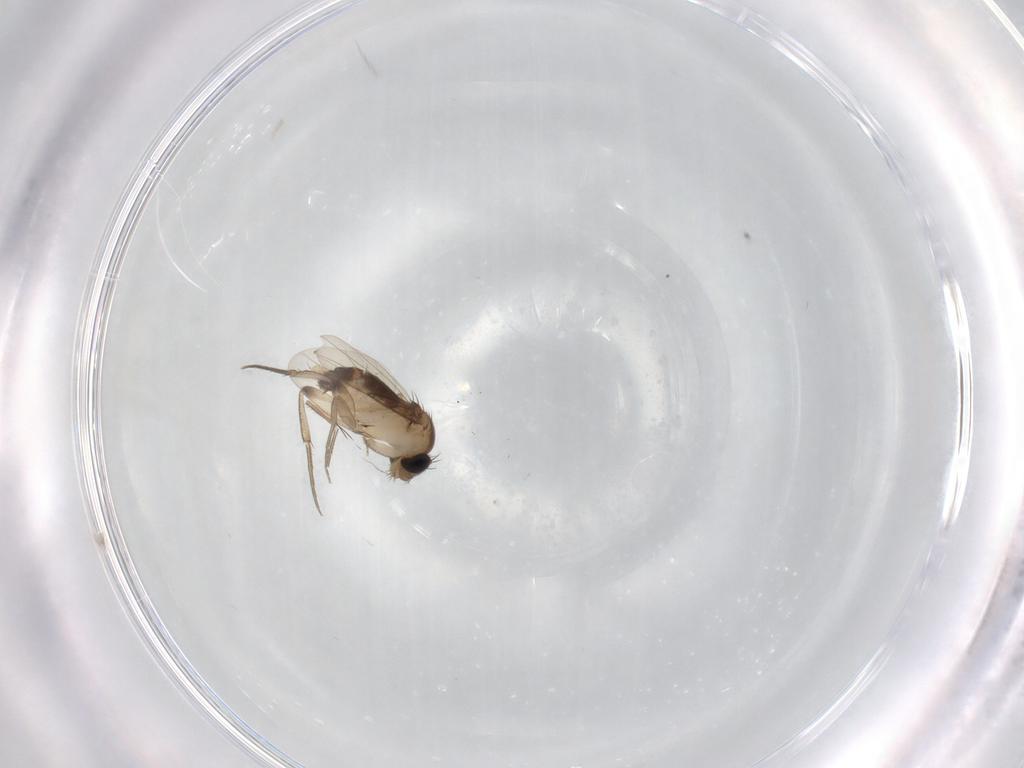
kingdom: Animalia
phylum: Arthropoda
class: Insecta
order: Diptera
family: Phoridae
